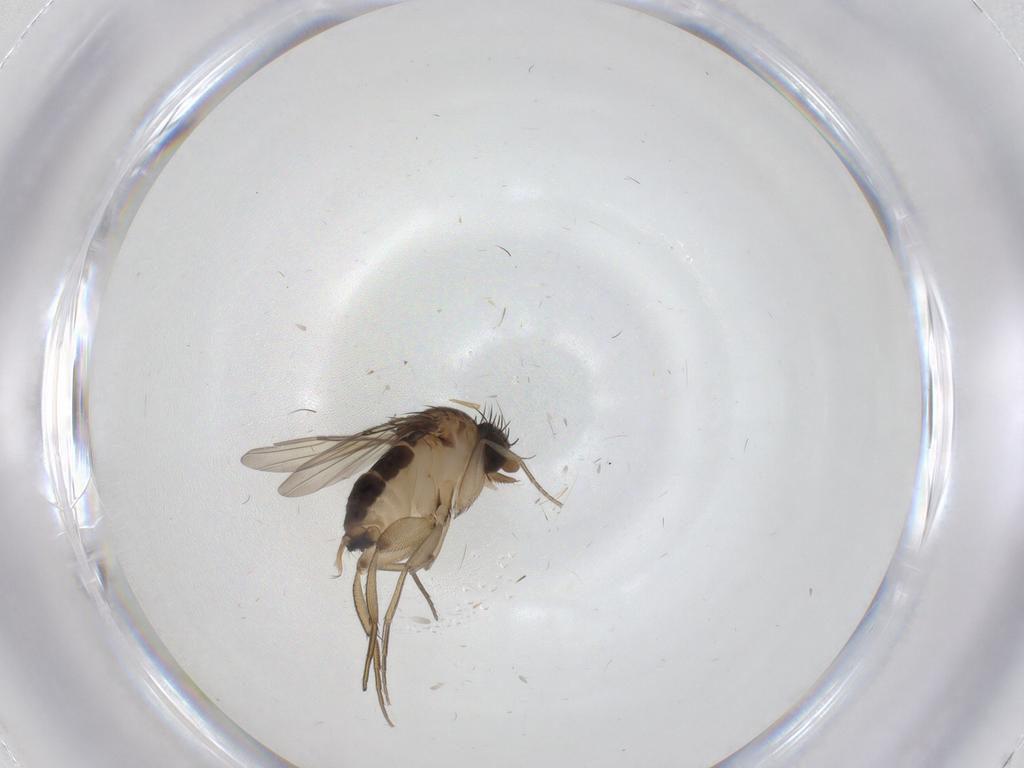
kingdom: Animalia
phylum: Arthropoda
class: Insecta
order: Diptera
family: Phoridae
